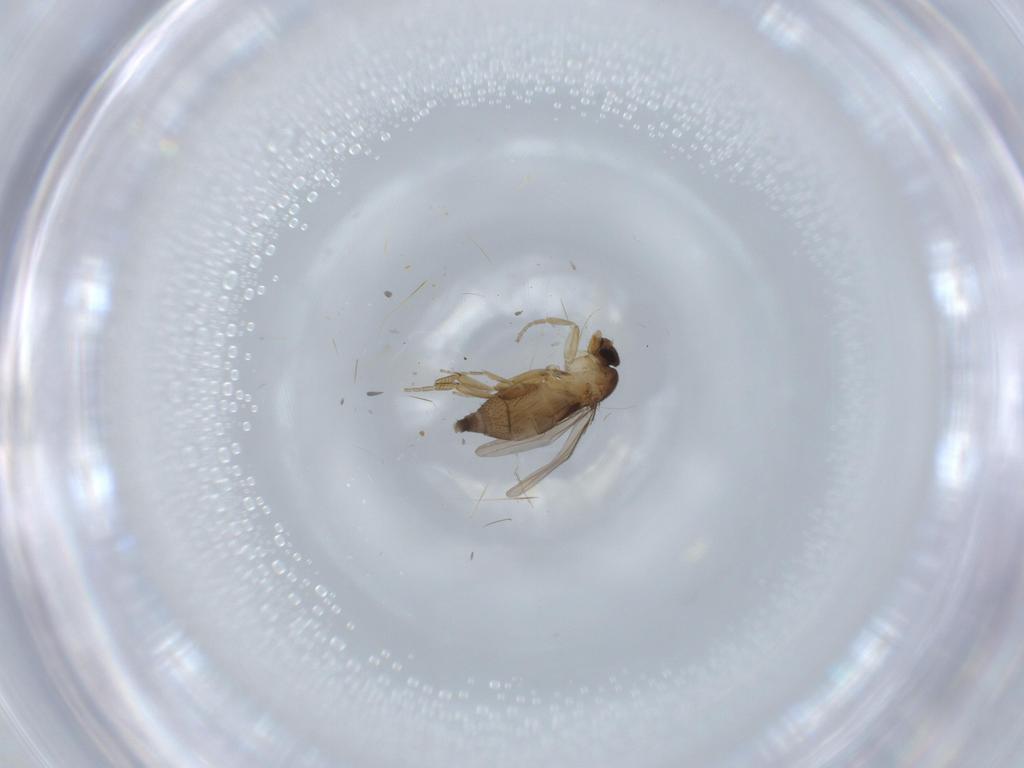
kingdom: Animalia
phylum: Arthropoda
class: Insecta
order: Diptera
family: Phoridae
